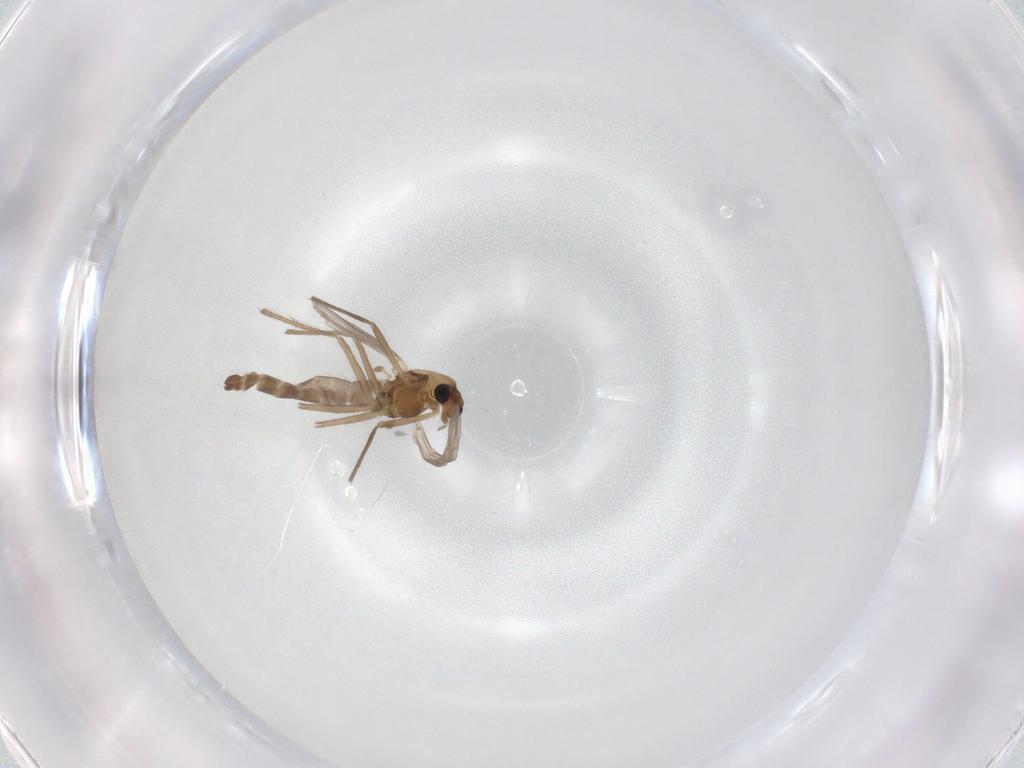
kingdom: Animalia
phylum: Arthropoda
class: Insecta
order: Diptera
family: Chironomidae
